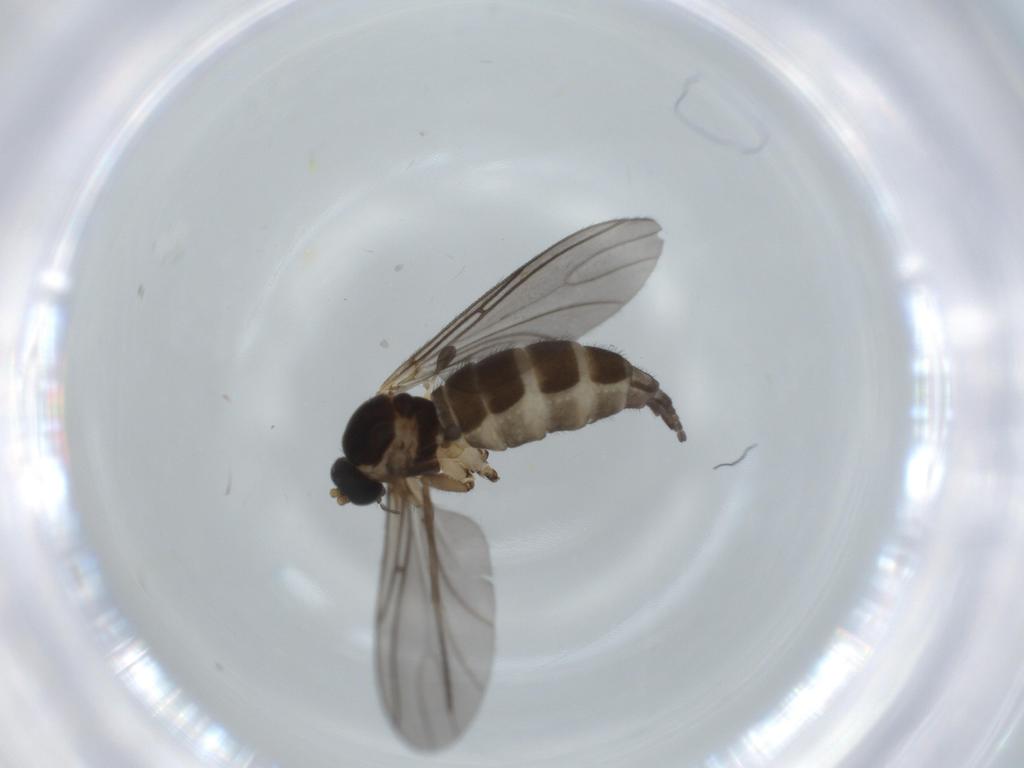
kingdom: Animalia
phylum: Arthropoda
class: Insecta
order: Diptera
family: Sciaridae
